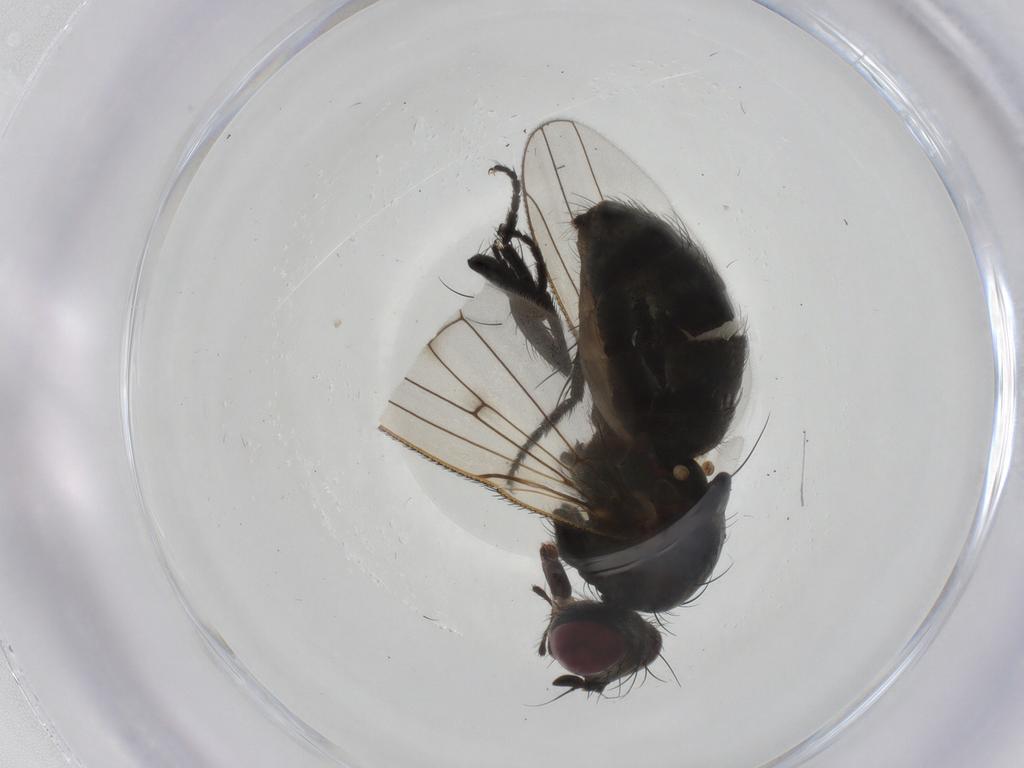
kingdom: Animalia
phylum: Arthropoda
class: Insecta
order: Diptera
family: Muscidae
